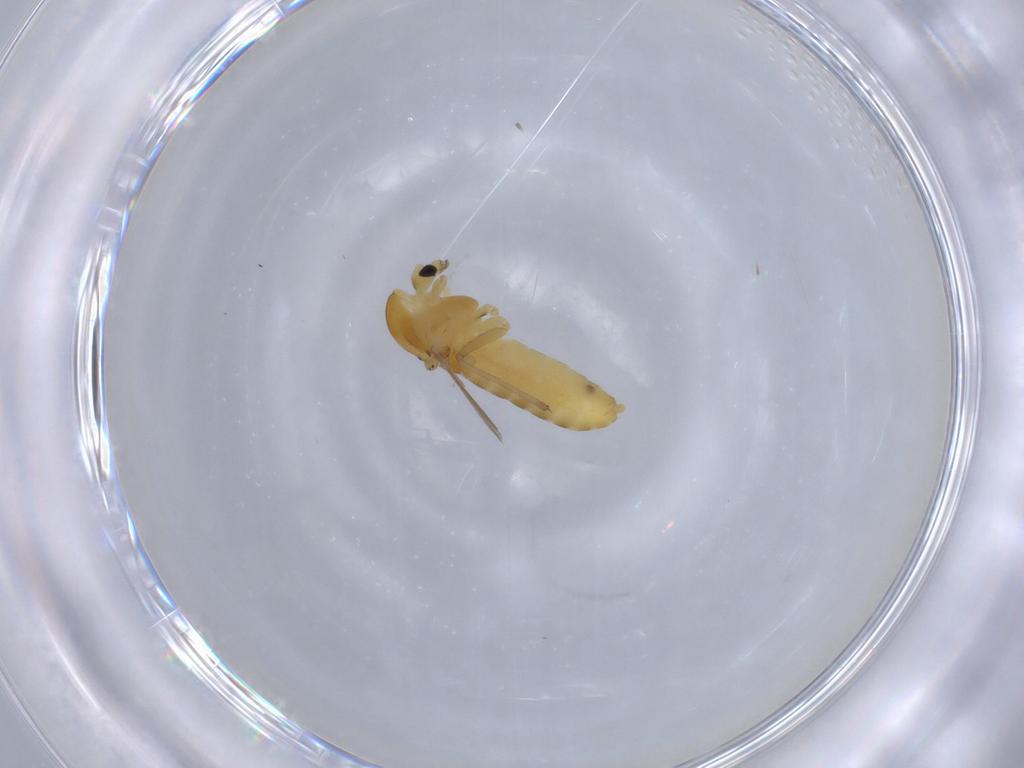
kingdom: Animalia
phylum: Arthropoda
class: Insecta
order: Diptera
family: Chironomidae
